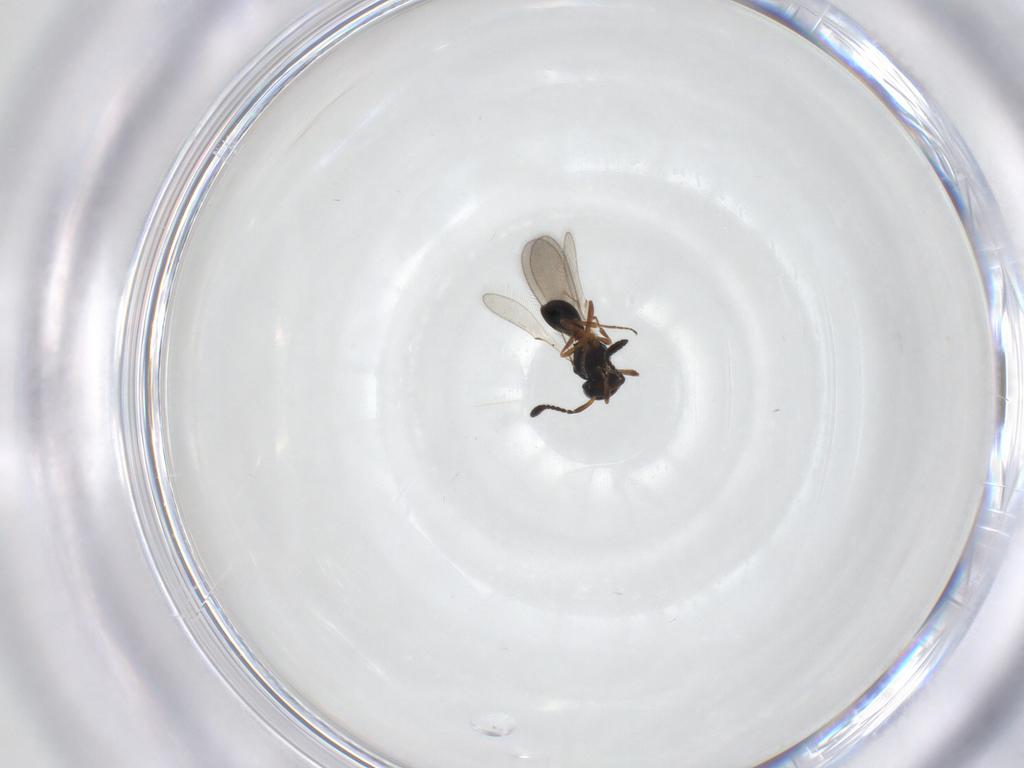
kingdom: Animalia
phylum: Arthropoda
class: Insecta
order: Hymenoptera
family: Scelionidae
